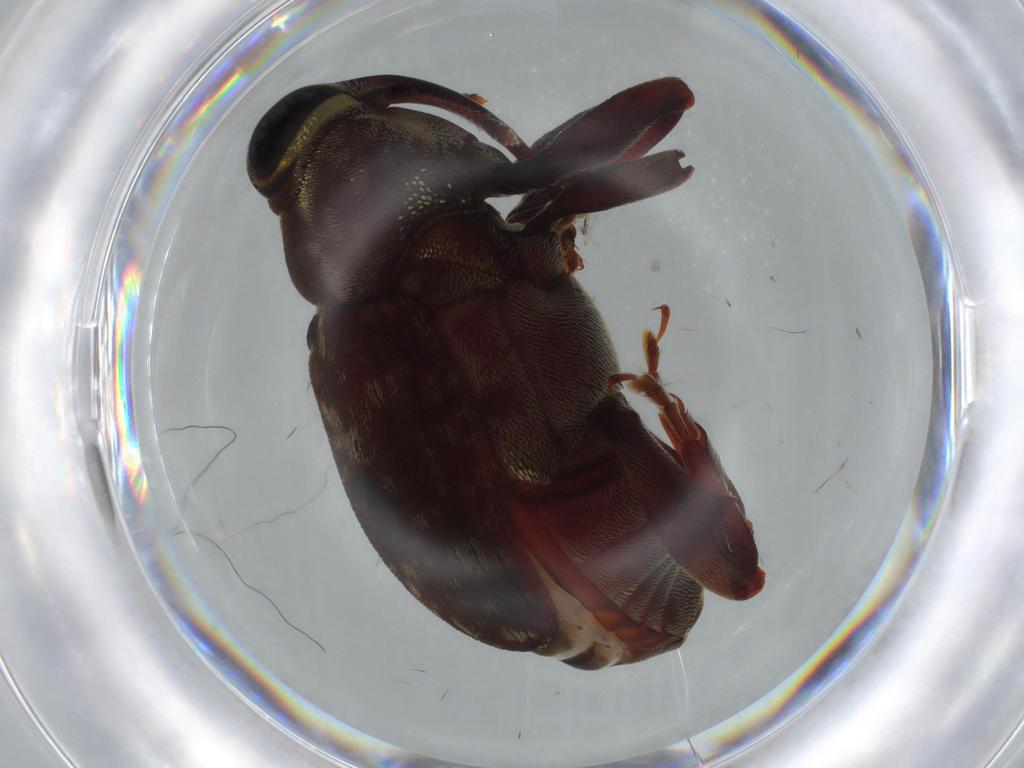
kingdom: Animalia
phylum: Arthropoda
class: Insecta
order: Coleoptera
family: Curculionidae
